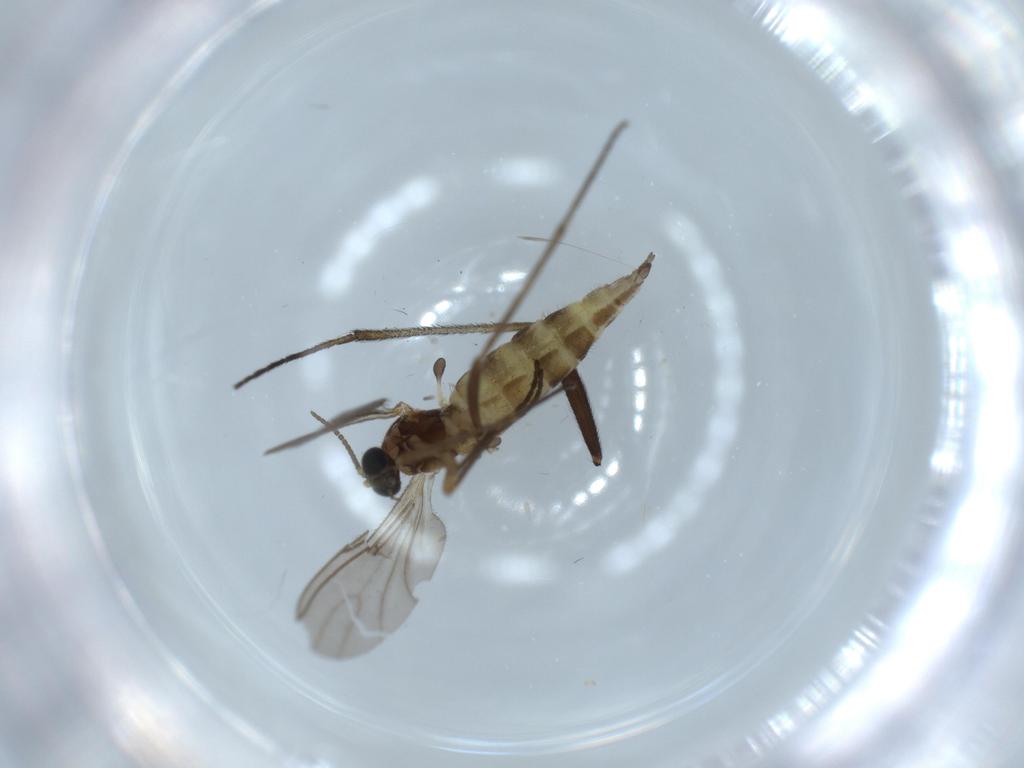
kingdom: Animalia
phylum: Arthropoda
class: Insecta
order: Diptera
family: Sciaridae
